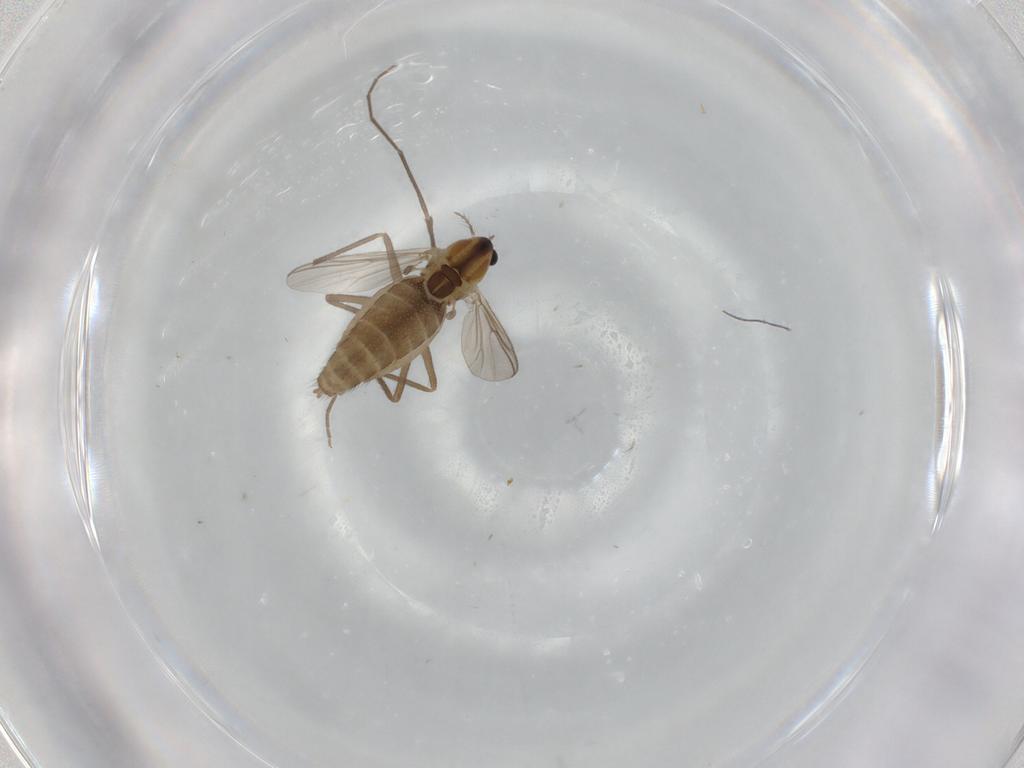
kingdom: Animalia
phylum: Arthropoda
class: Insecta
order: Diptera
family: Chironomidae
